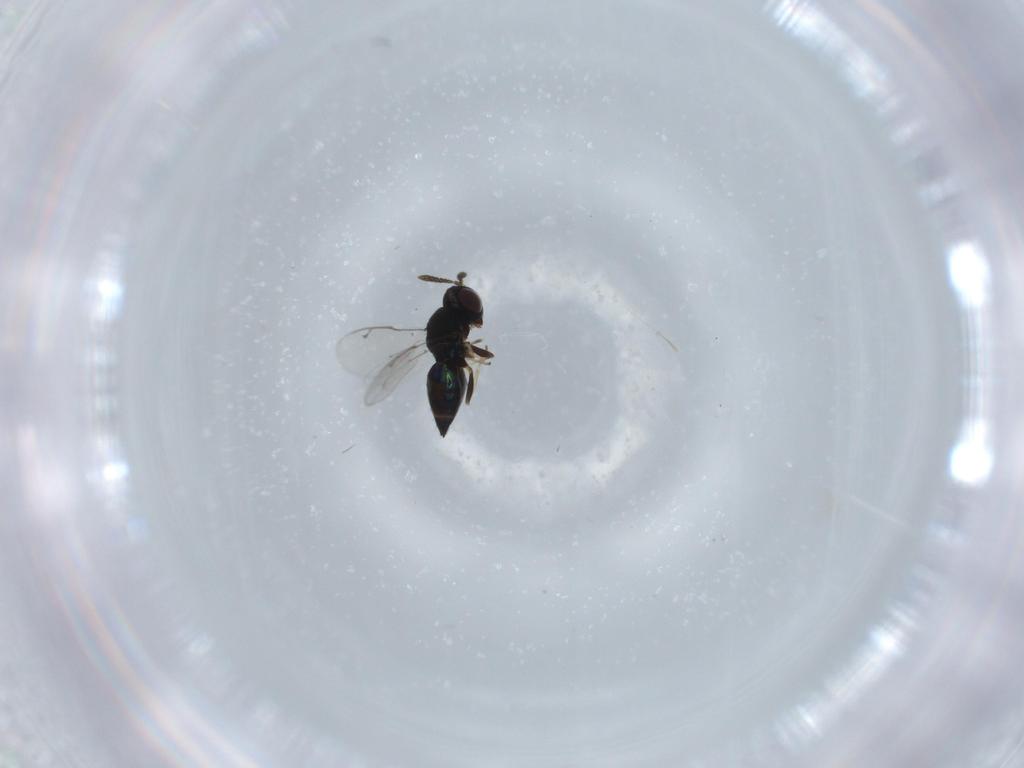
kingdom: Animalia
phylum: Arthropoda
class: Insecta
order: Hymenoptera
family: Pteromalidae
